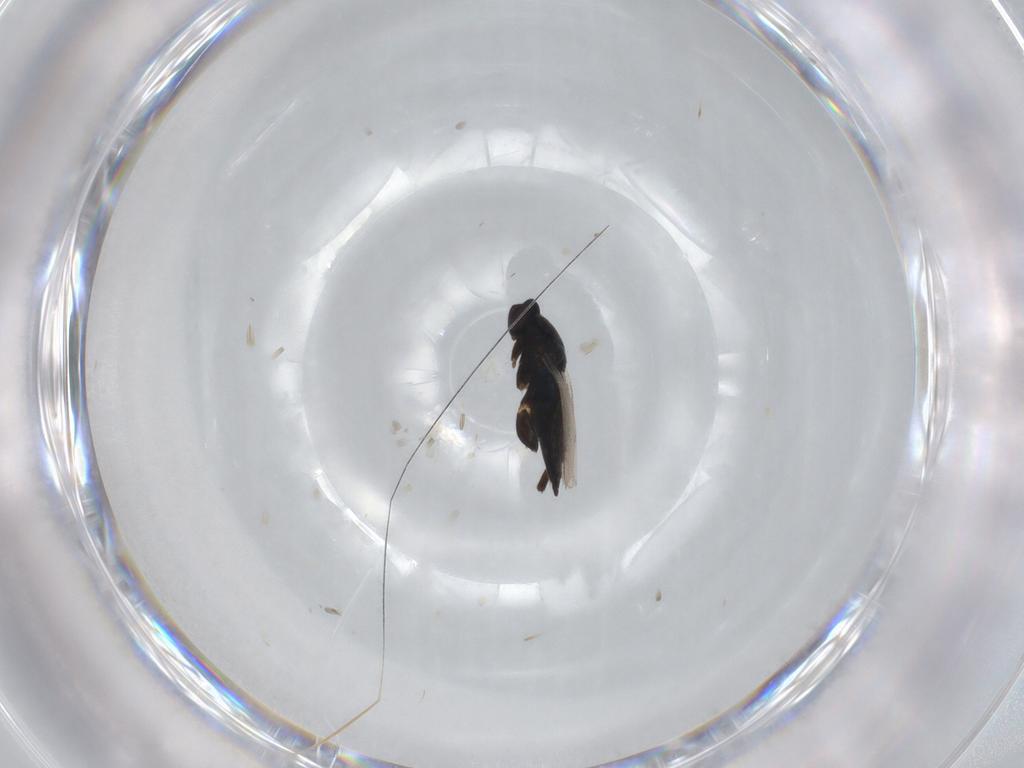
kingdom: Animalia
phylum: Arthropoda
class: Insecta
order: Hymenoptera
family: Eulophidae
